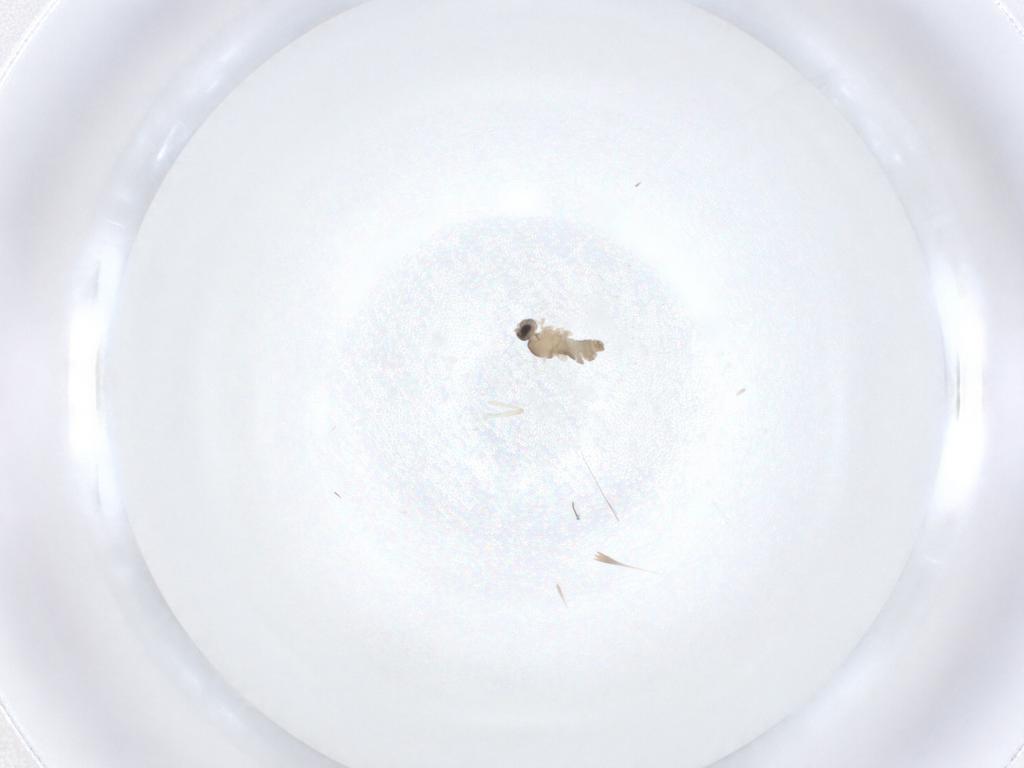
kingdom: Animalia
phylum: Arthropoda
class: Insecta
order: Diptera
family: Cecidomyiidae
